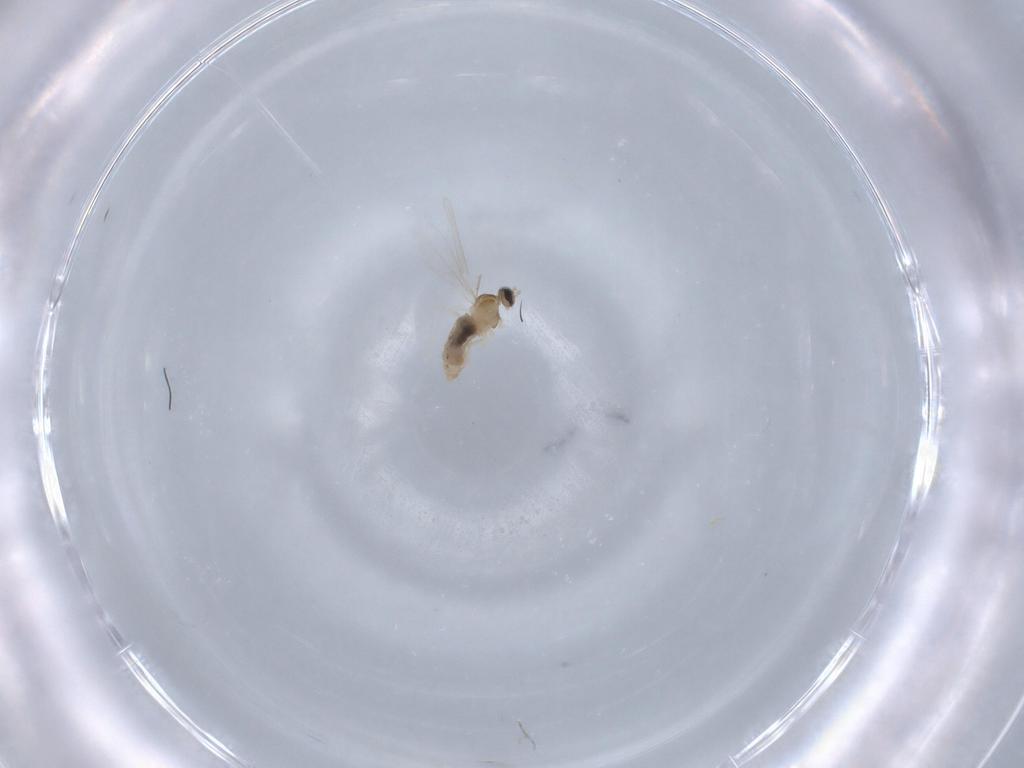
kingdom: Animalia
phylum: Arthropoda
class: Insecta
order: Diptera
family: Cecidomyiidae
